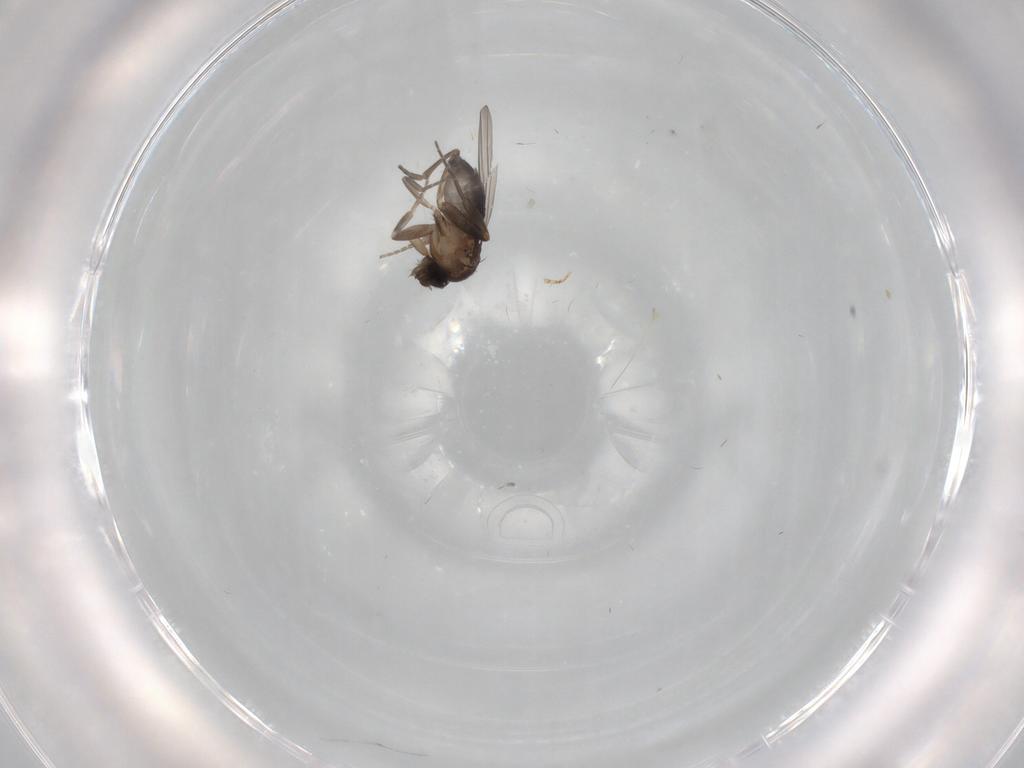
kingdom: Animalia
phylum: Arthropoda
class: Insecta
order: Diptera
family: Phoridae
